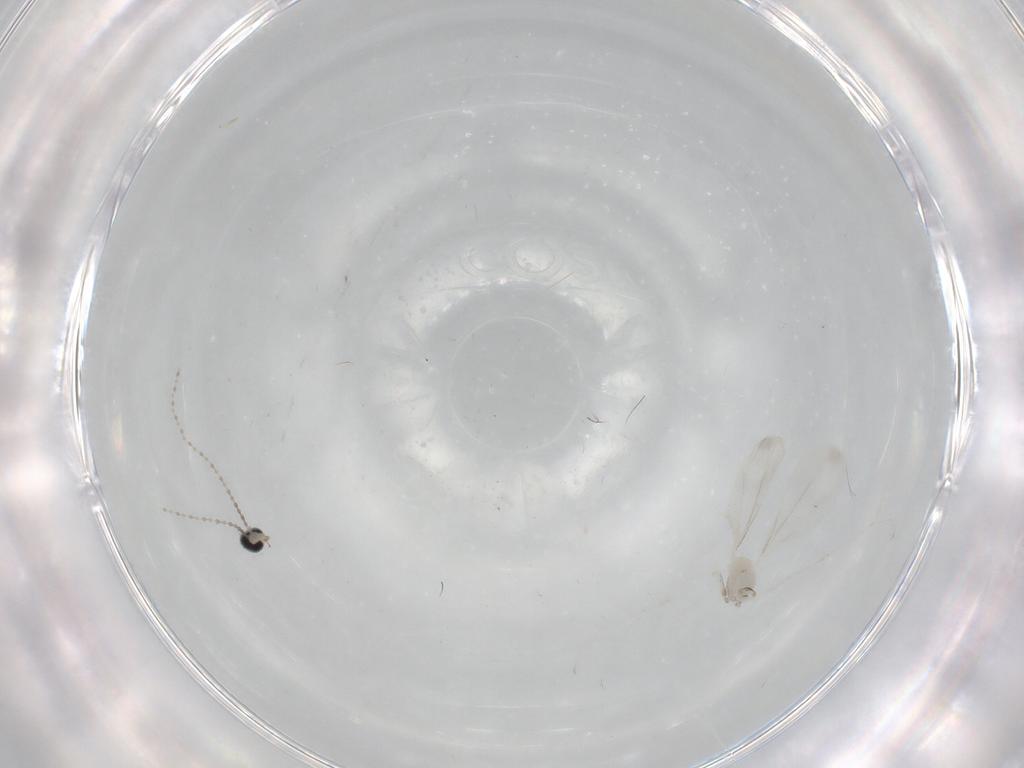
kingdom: Animalia
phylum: Arthropoda
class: Insecta
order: Diptera
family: Cecidomyiidae
